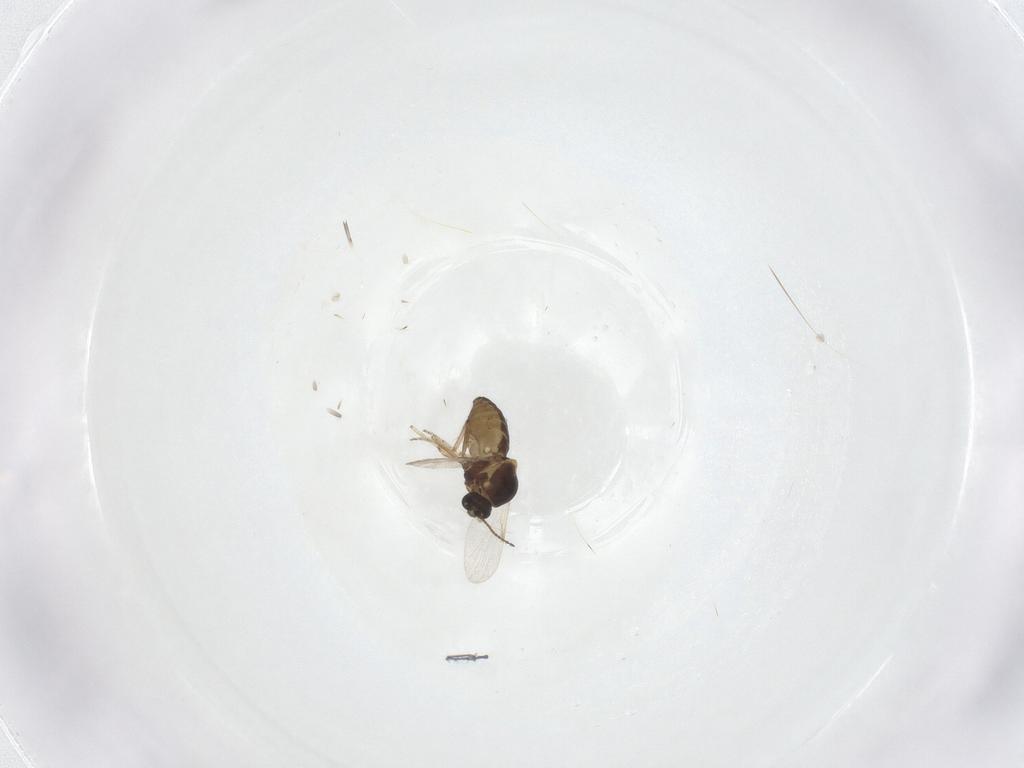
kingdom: Animalia
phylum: Arthropoda
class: Insecta
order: Diptera
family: Ceratopogonidae
